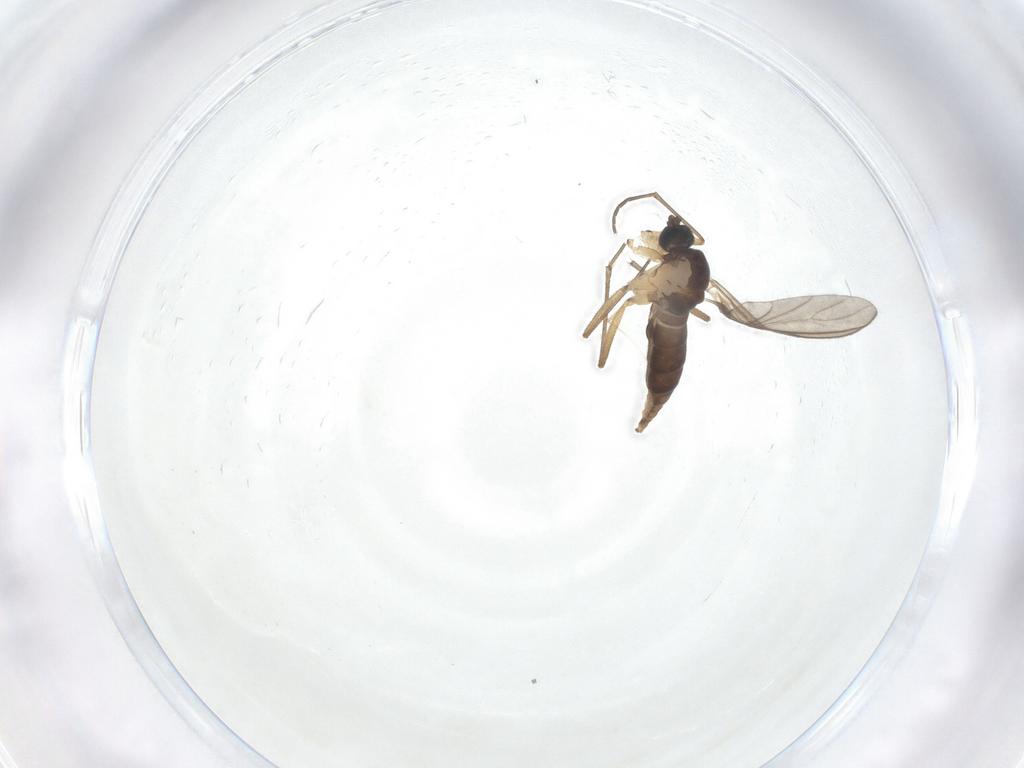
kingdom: Animalia
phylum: Arthropoda
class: Insecta
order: Diptera
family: Sciaridae
